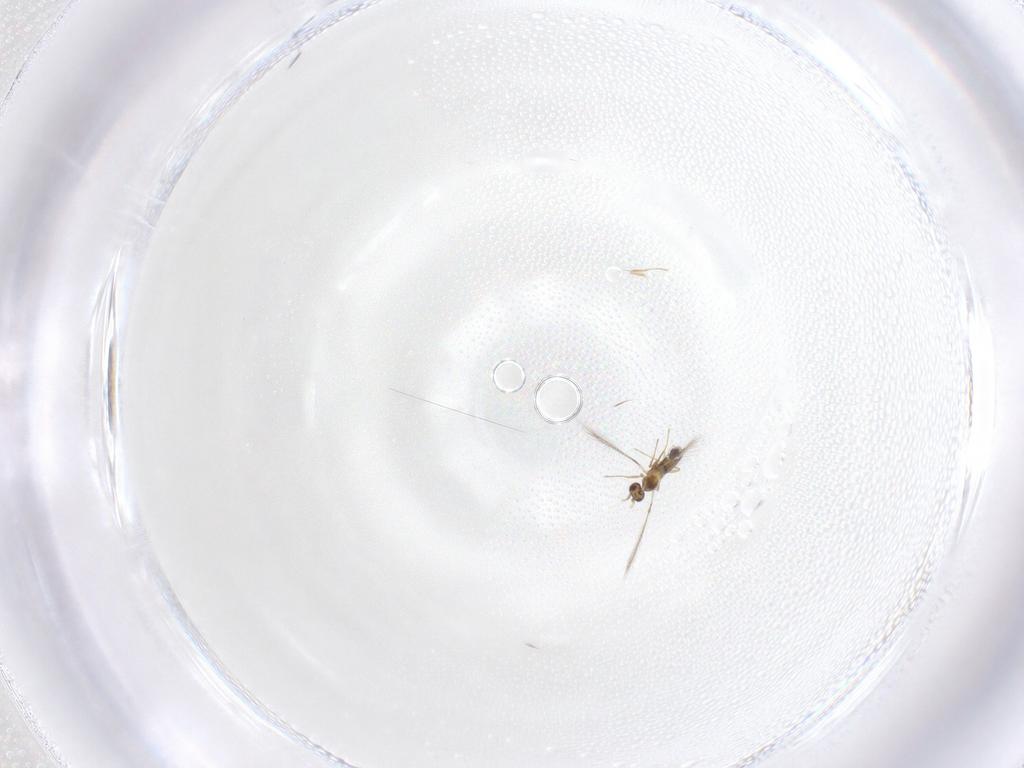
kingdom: Animalia
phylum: Arthropoda
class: Insecta
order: Hymenoptera
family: Mymaridae
